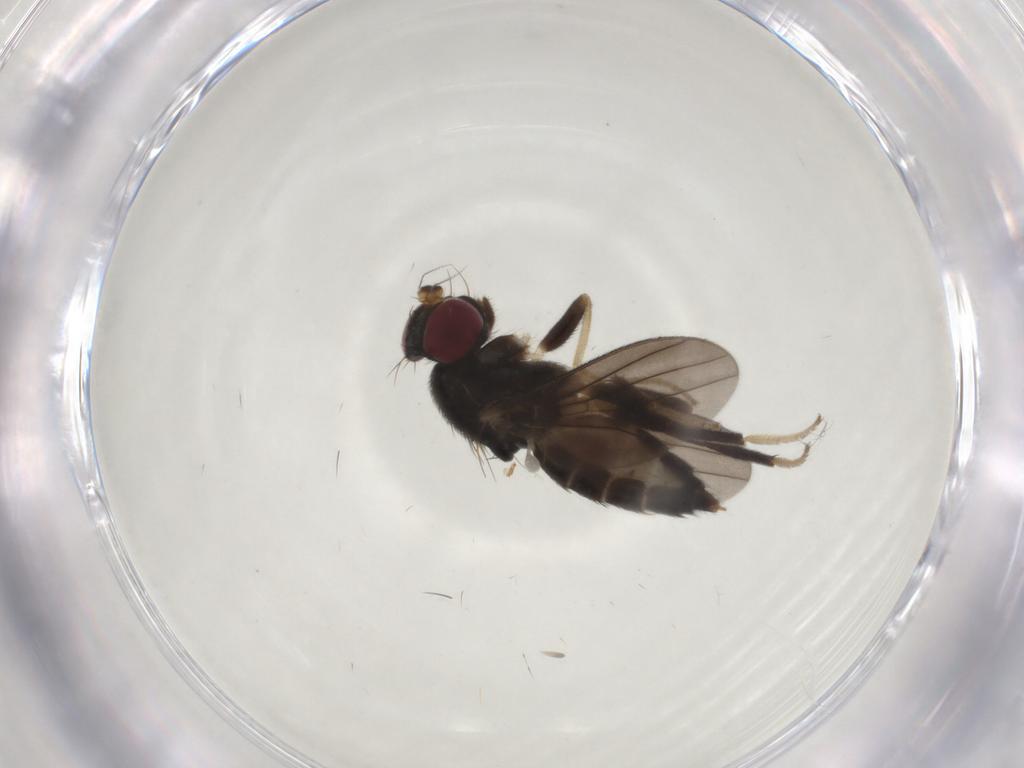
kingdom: Animalia
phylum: Arthropoda
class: Insecta
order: Diptera
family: Clusiidae
